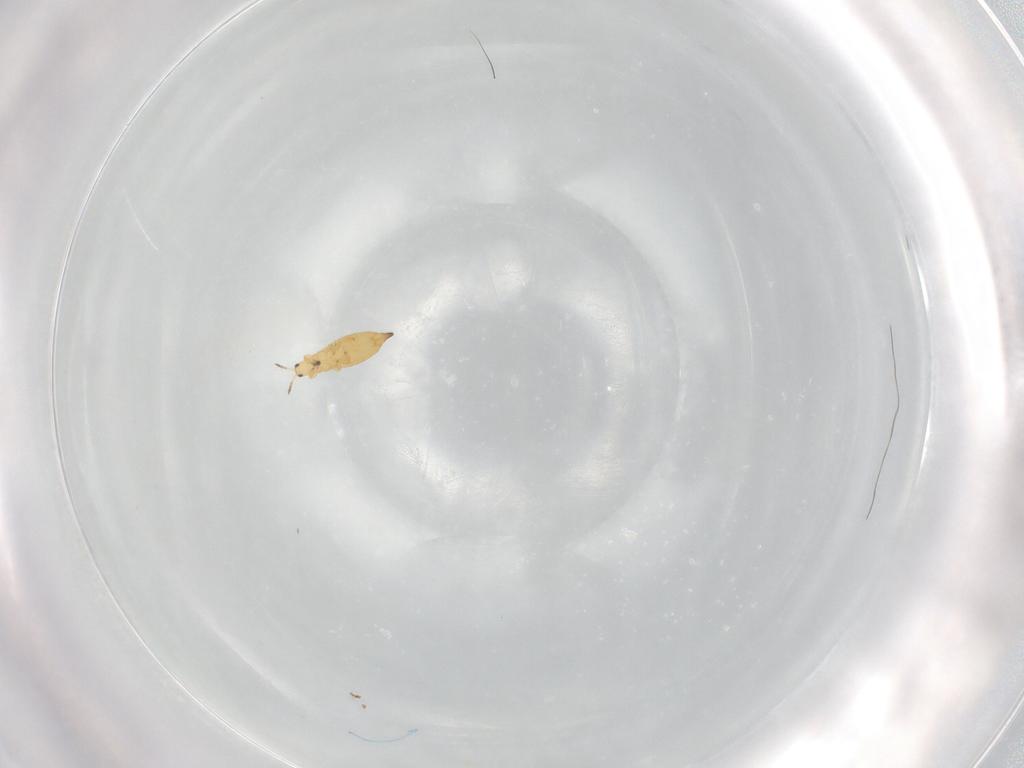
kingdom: Animalia
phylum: Arthropoda
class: Insecta
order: Thysanoptera
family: Thripidae
